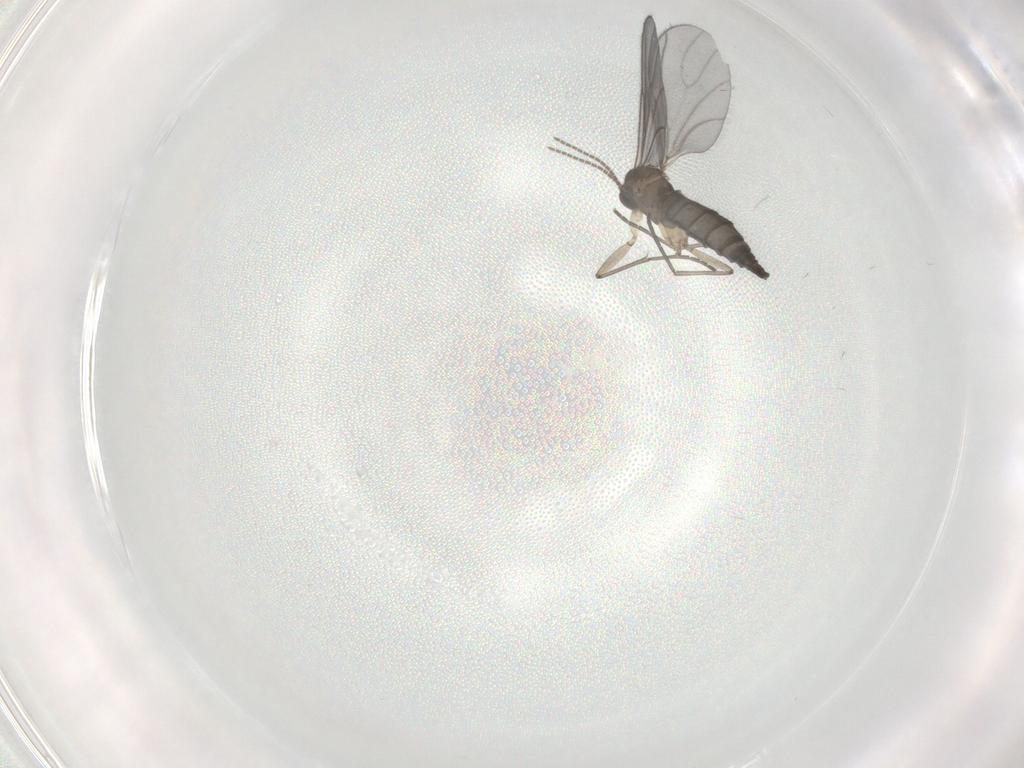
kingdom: Animalia
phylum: Arthropoda
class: Insecta
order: Diptera
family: Sciaridae
